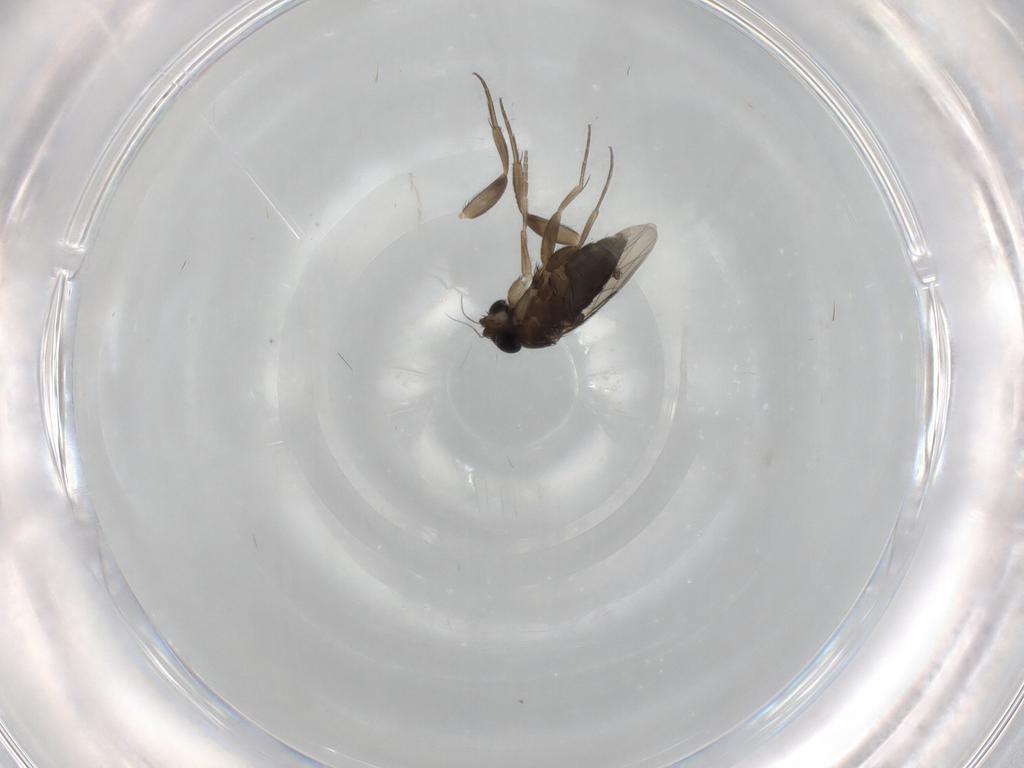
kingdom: Animalia
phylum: Arthropoda
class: Insecta
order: Diptera
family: Phoridae
